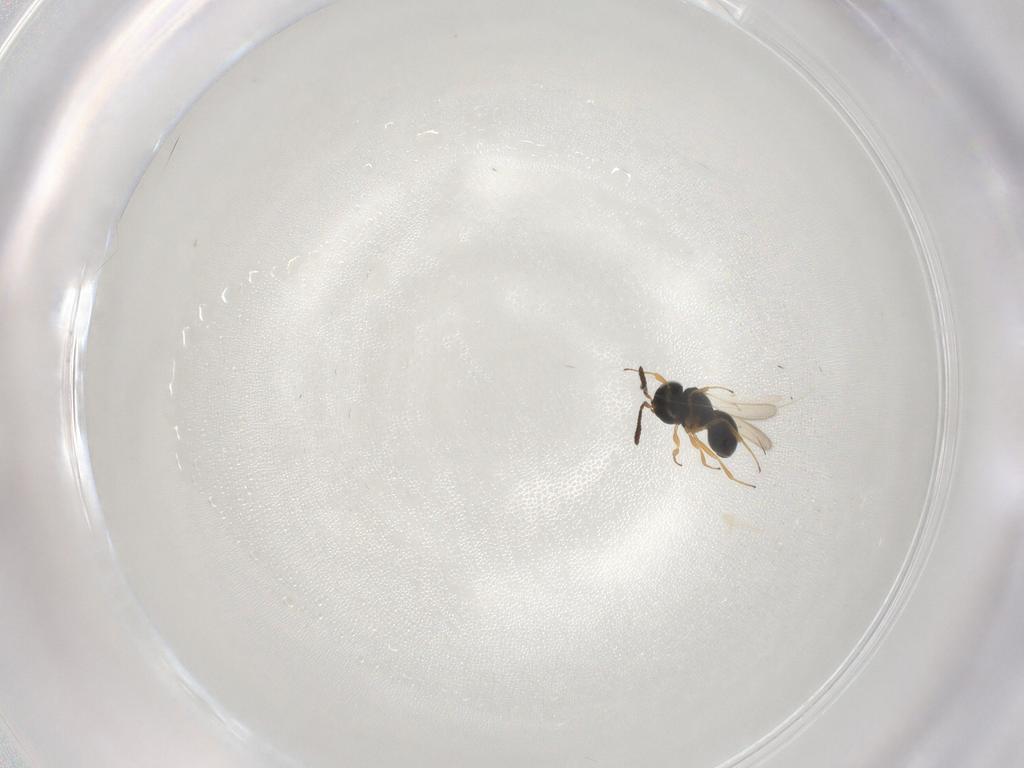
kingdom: Animalia
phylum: Arthropoda
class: Insecta
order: Hymenoptera
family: Scelionidae
